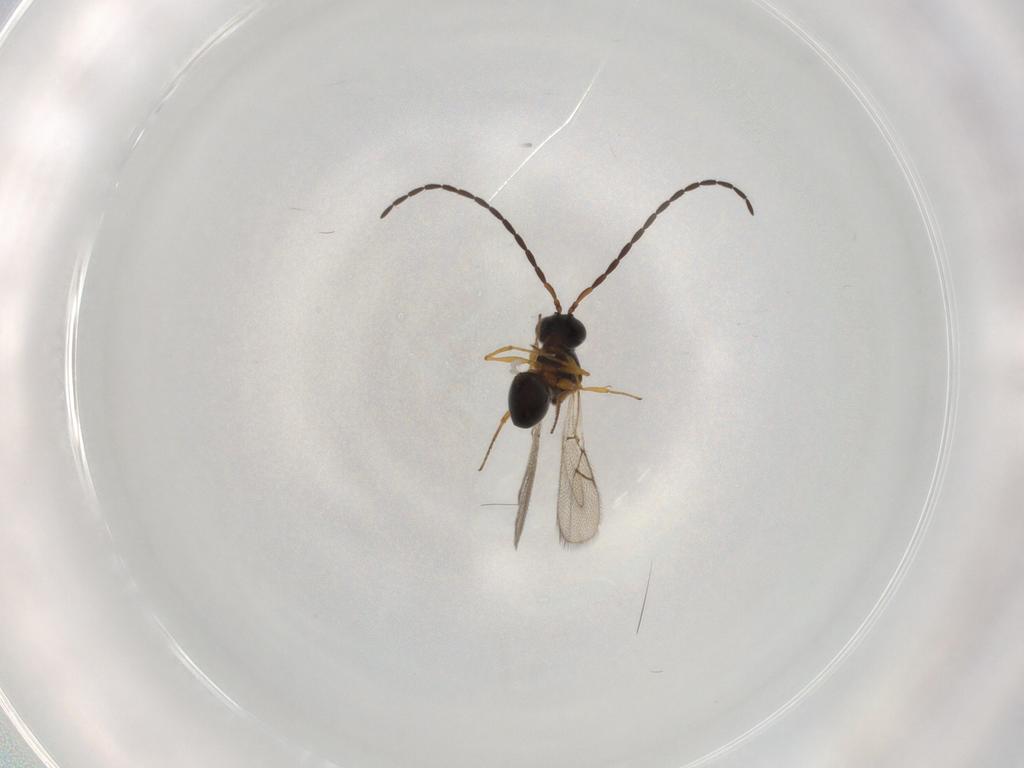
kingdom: Animalia
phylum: Arthropoda
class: Insecta
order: Hymenoptera
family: Figitidae
